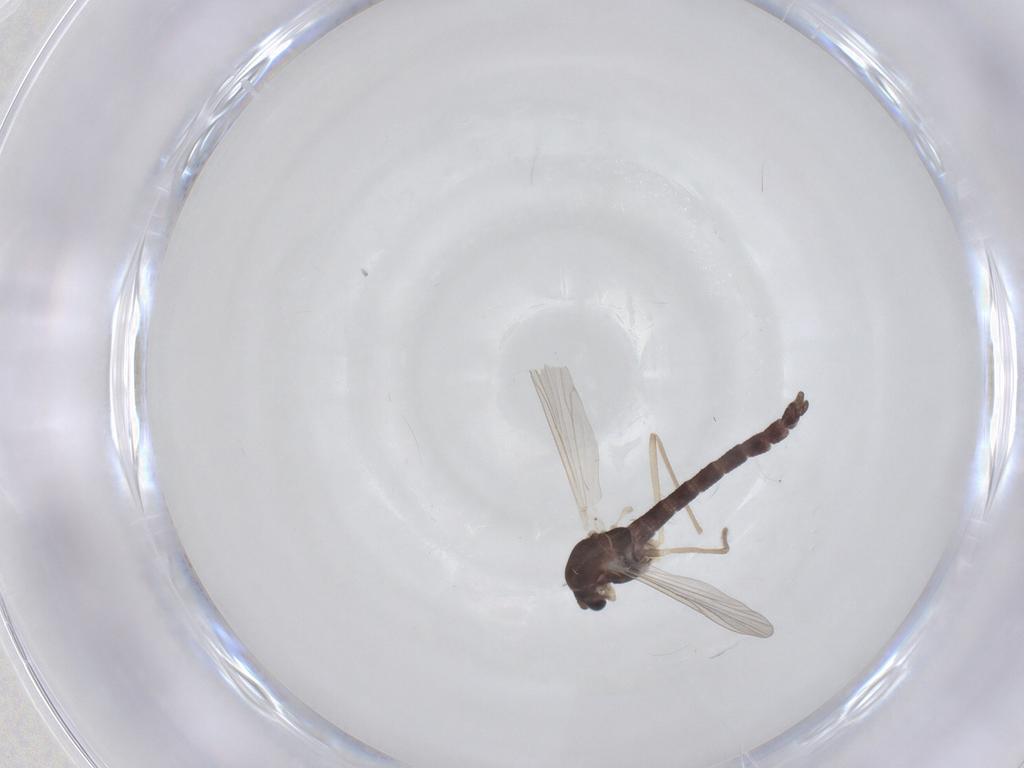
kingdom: Animalia
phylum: Arthropoda
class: Insecta
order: Diptera
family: Chironomidae
